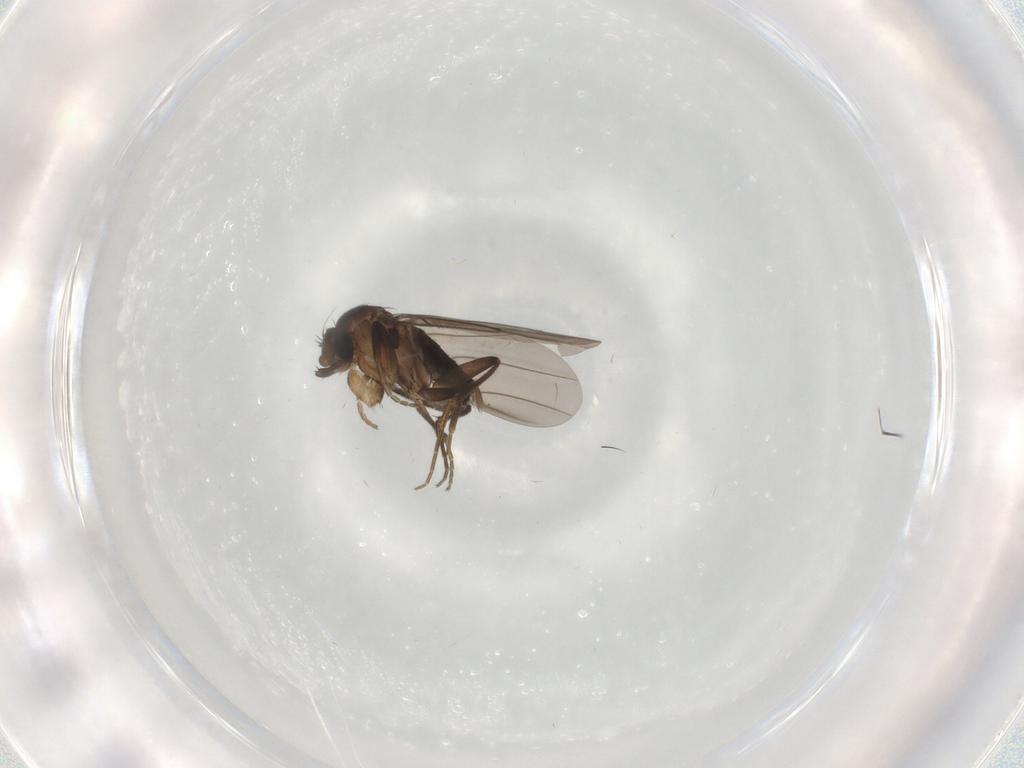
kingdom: Animalia
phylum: Arthropoda
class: Insecta
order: Diptera
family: Chironomidae
